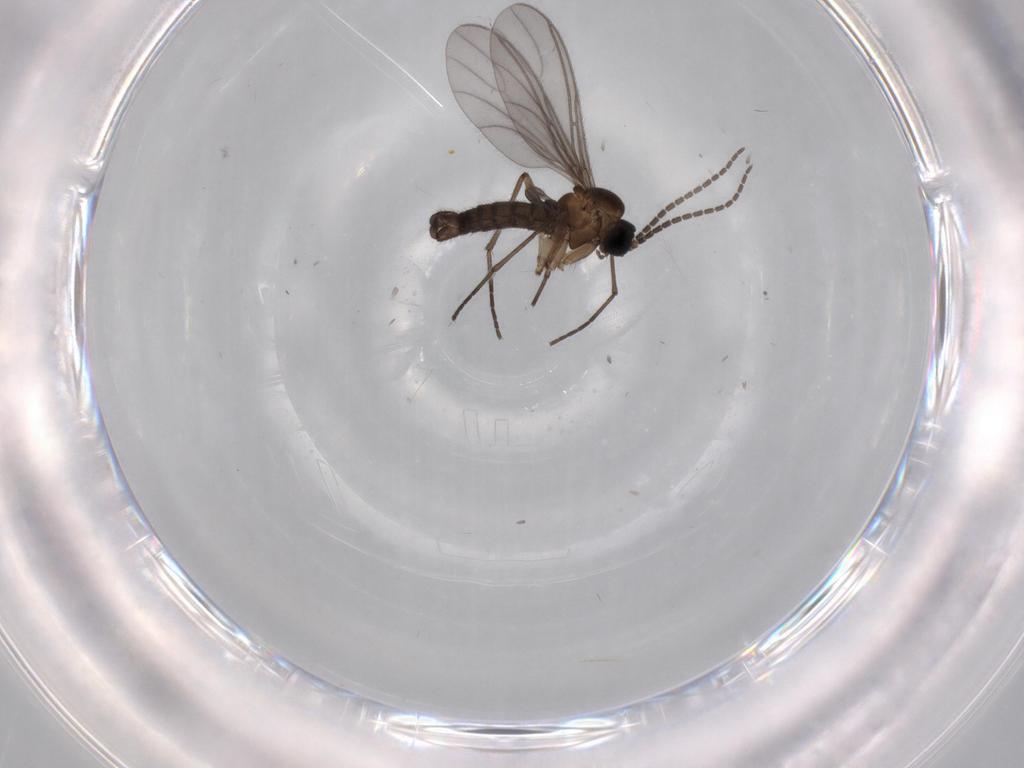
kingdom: Animalia
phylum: Arthropoda
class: Insecta
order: Diptera
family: Sciaridae
